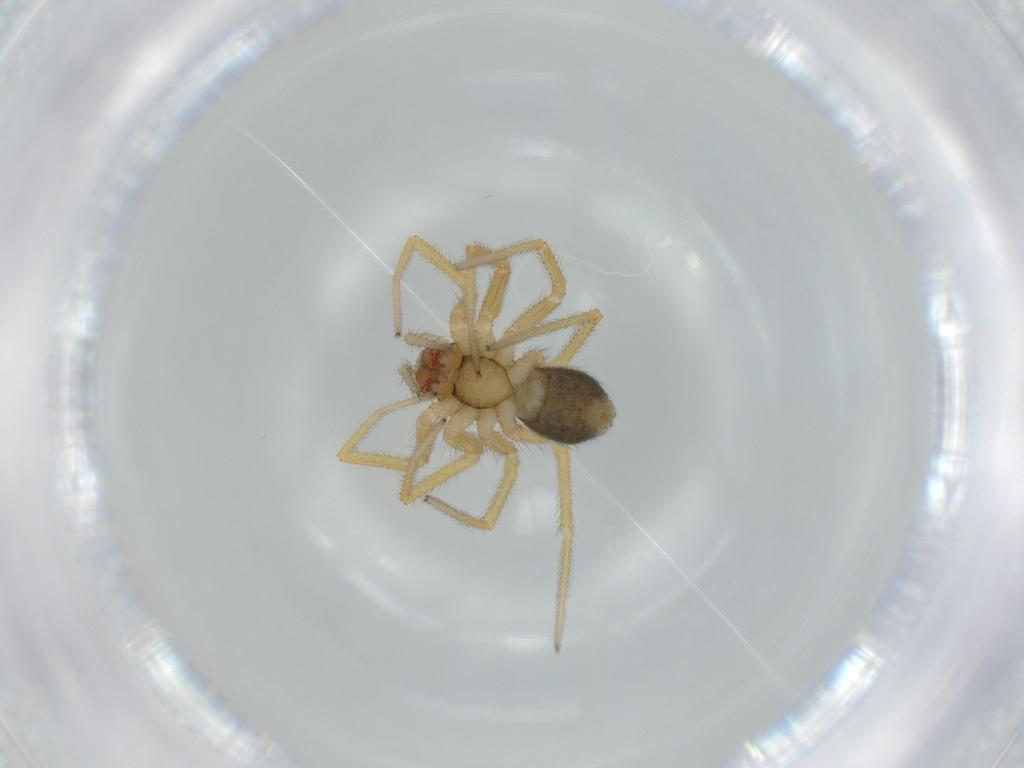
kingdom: Animalia
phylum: Arthropoda
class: Arachnida
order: Araneae
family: Linyphiidae
